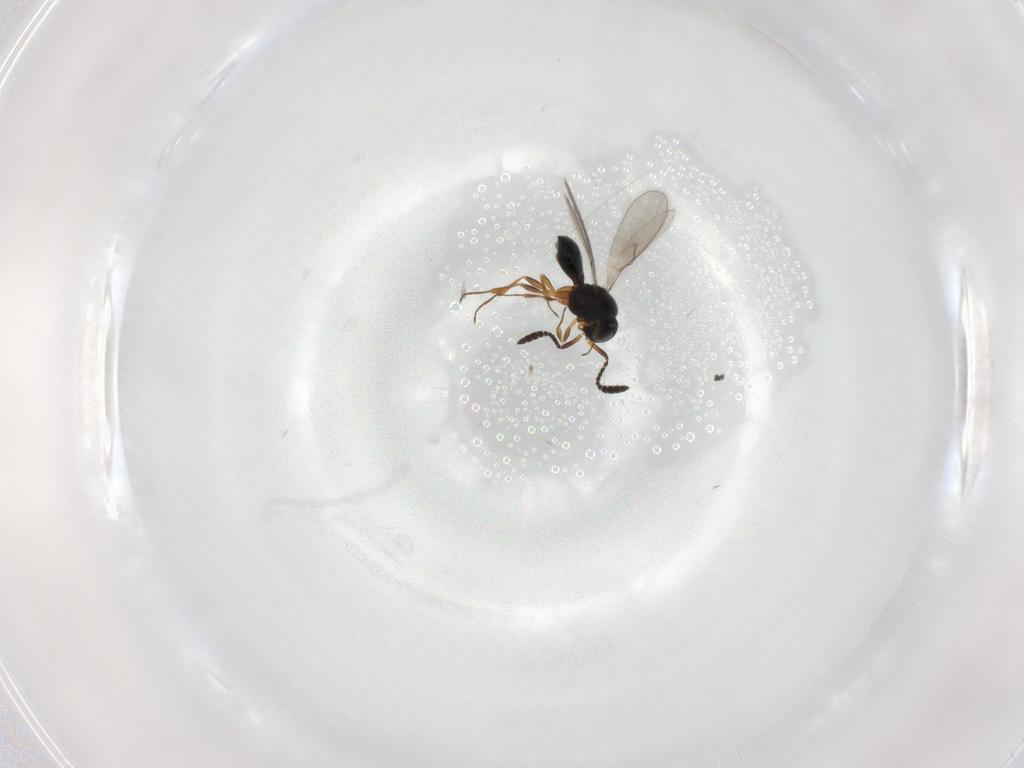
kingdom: Animalia
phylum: Arthropoda
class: Insecta
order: Hymenoptera
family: Scelionidae
